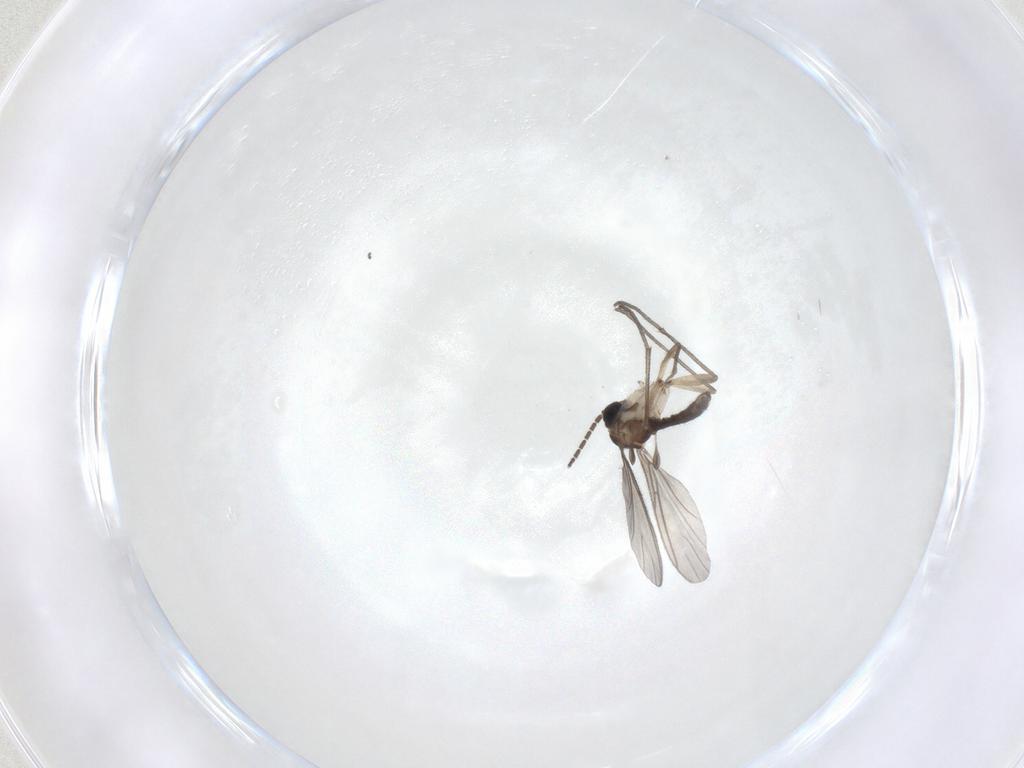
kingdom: Animalia
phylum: Arthropoda
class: Insecta
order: Diptera
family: Sciaridae
